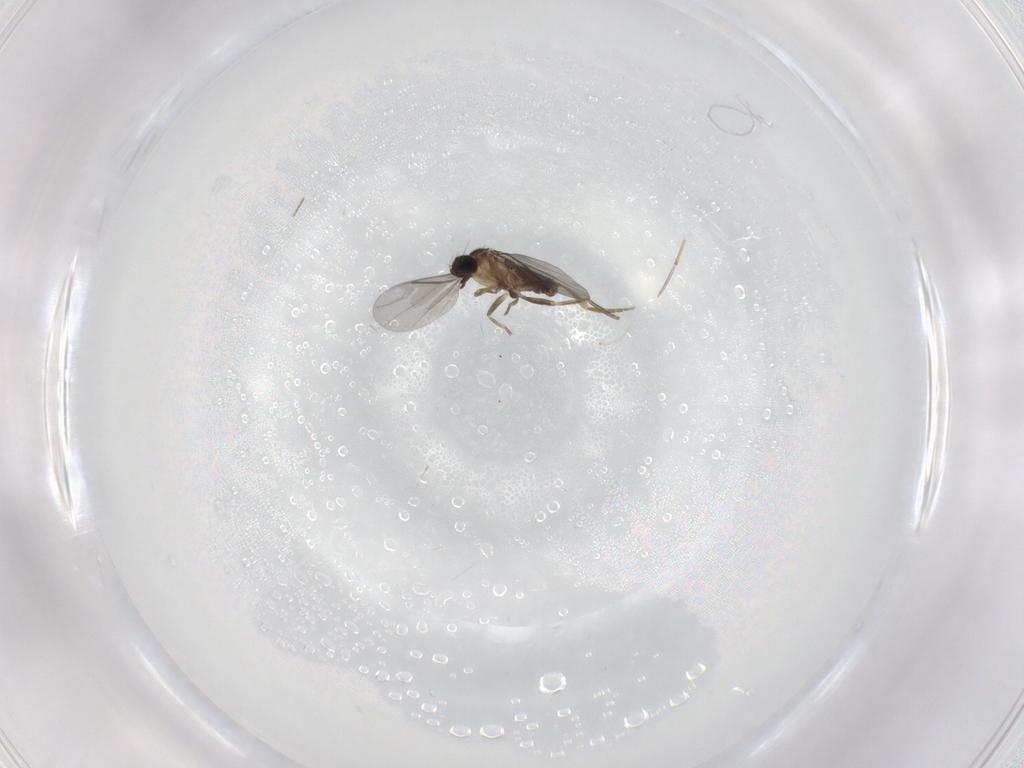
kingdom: Animalia
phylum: Arthropoda
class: Insecta
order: Diptera
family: Cecidomyiidae
